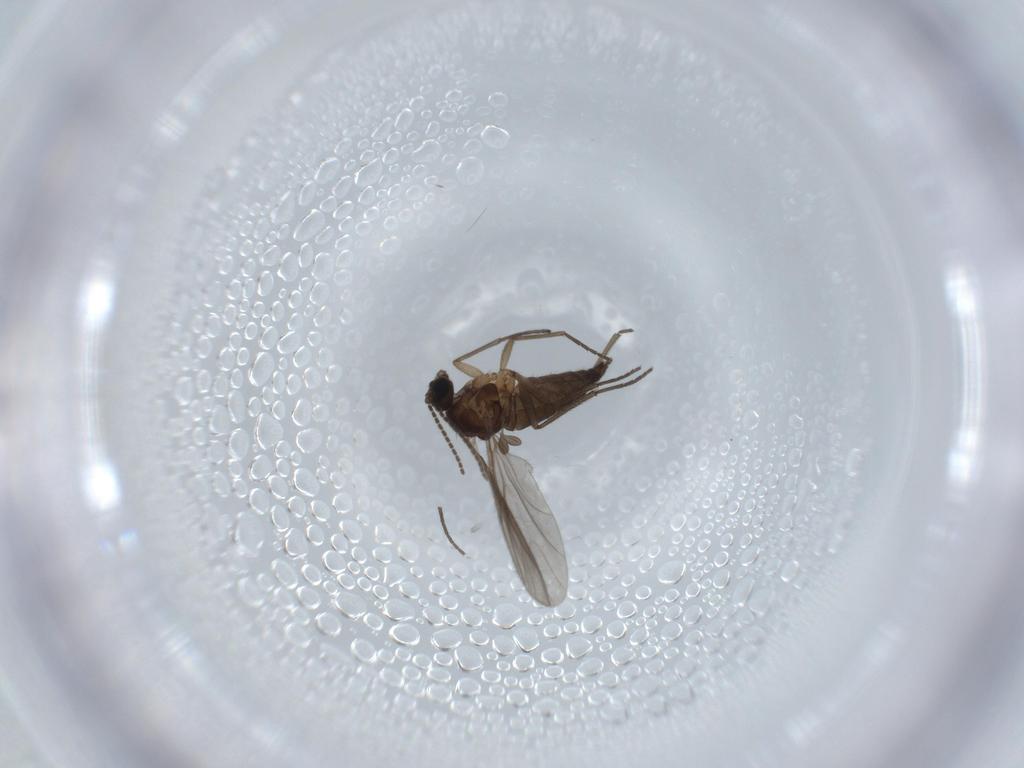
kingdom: Animalia
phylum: Arthropoda
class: Insecta
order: Diptera
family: Sciaridae
